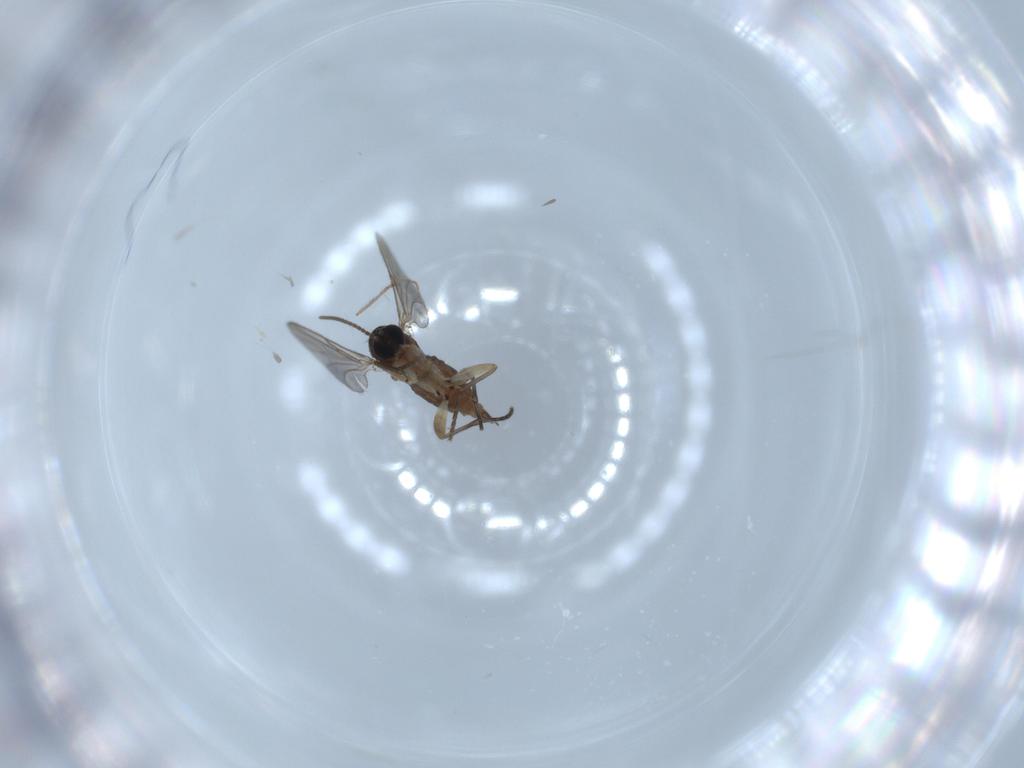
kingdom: Animalia
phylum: Arthropoda
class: Insecta
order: Diptera
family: Sciaridae
